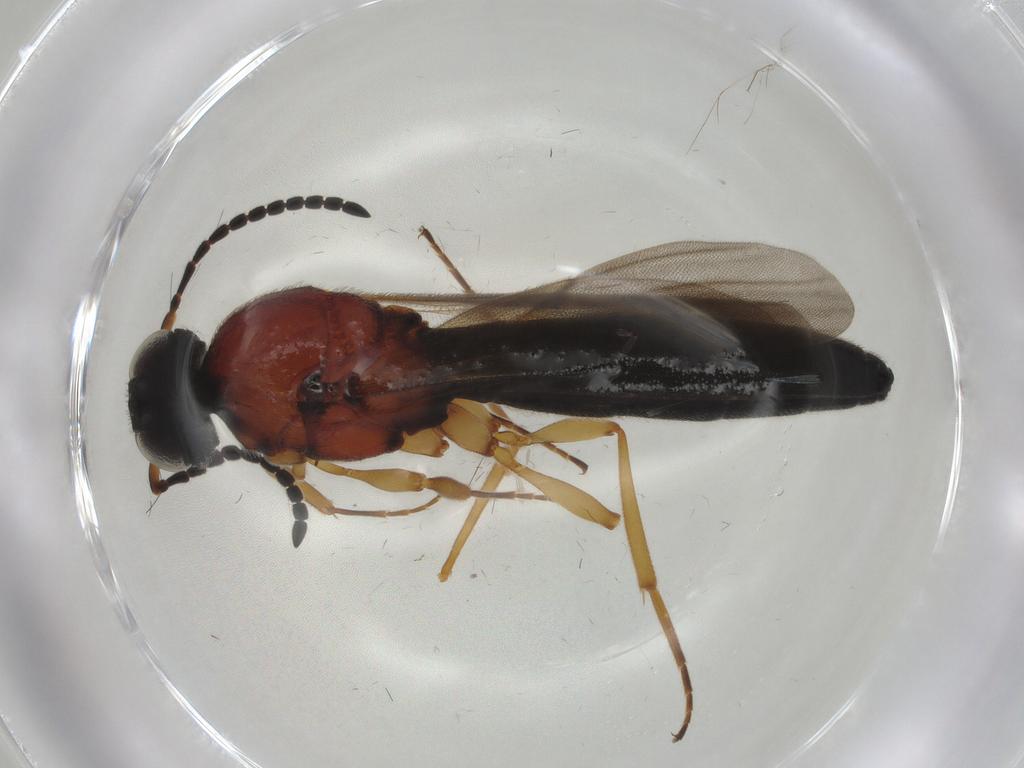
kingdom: Animalia
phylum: Arthropoda
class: Insecta
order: Hymenoptera
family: Scelionidae
